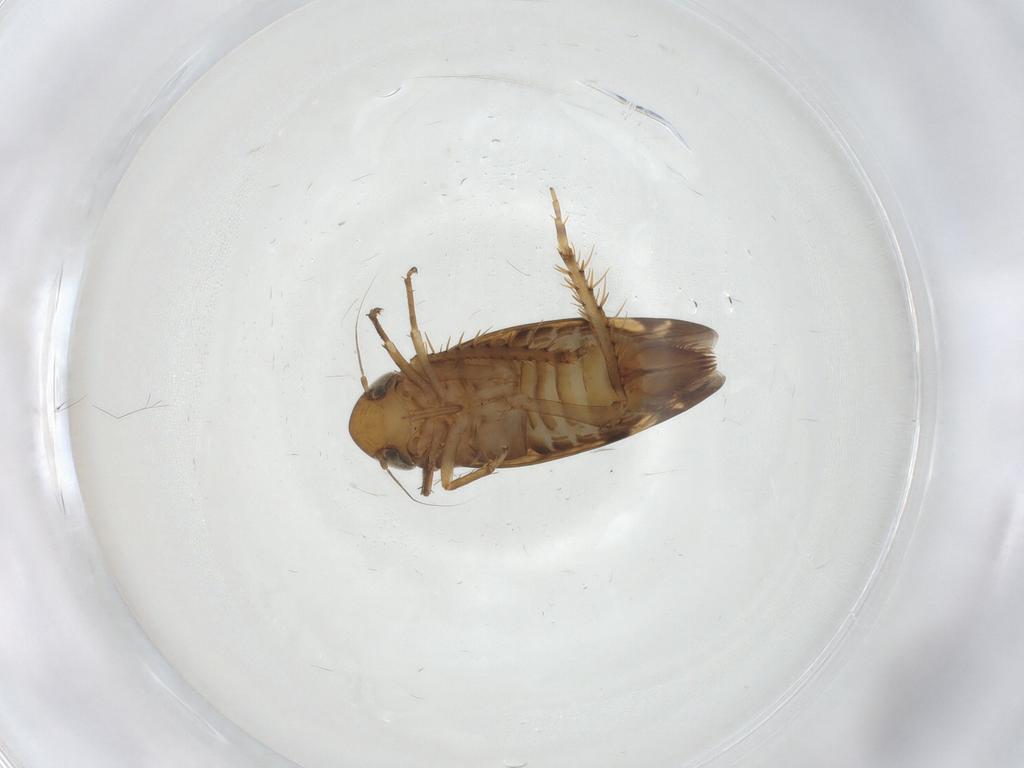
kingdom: Animalia
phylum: Arthropoda
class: Insecta
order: Hemiptera
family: Cicadellidae
